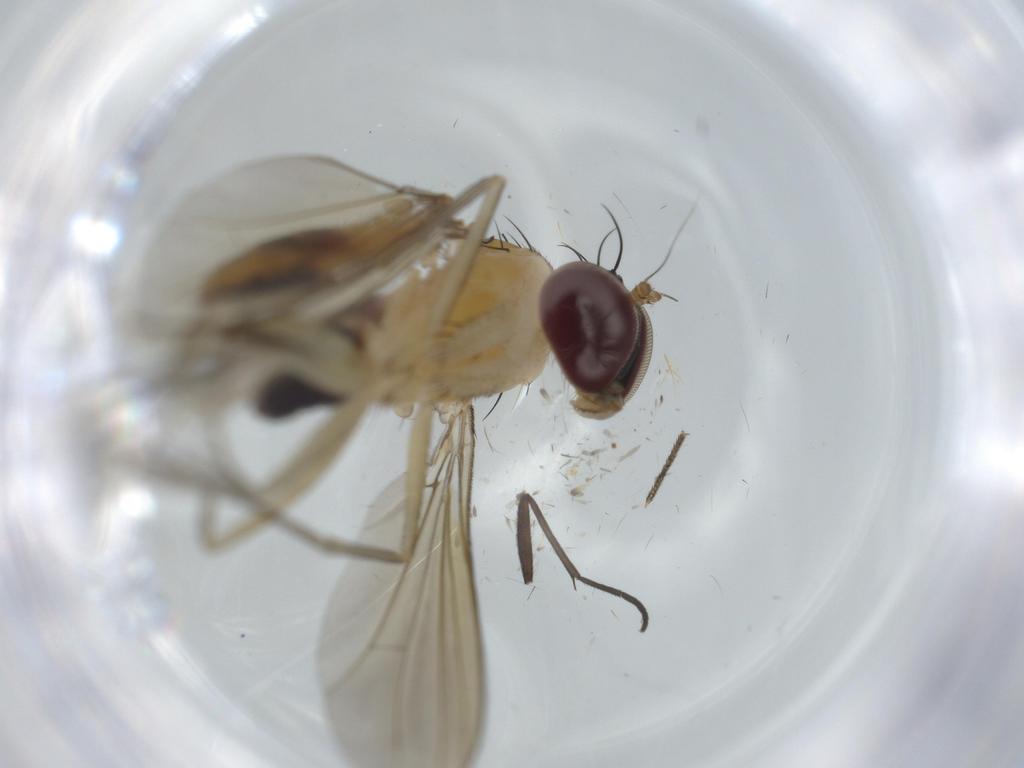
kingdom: Animalia
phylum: Arthropoda
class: Insecta
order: Diptera
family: Dolichopodidae
